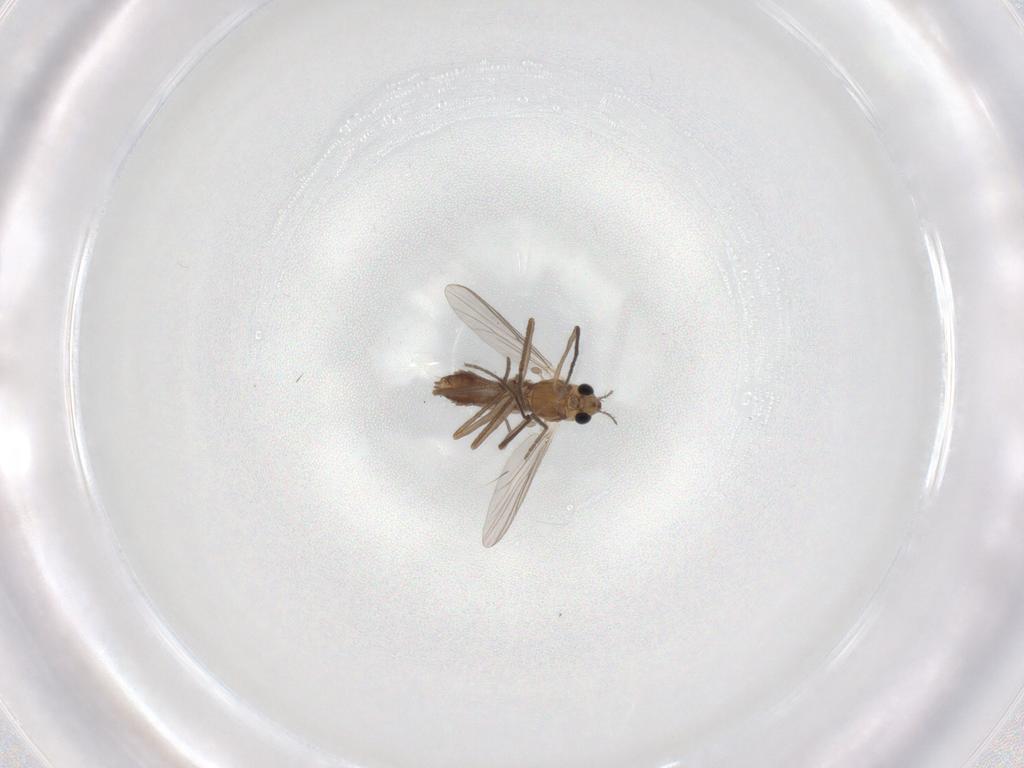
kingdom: Animalia
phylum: Arthropoda
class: Insecta
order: Diptera
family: Chironomidae
